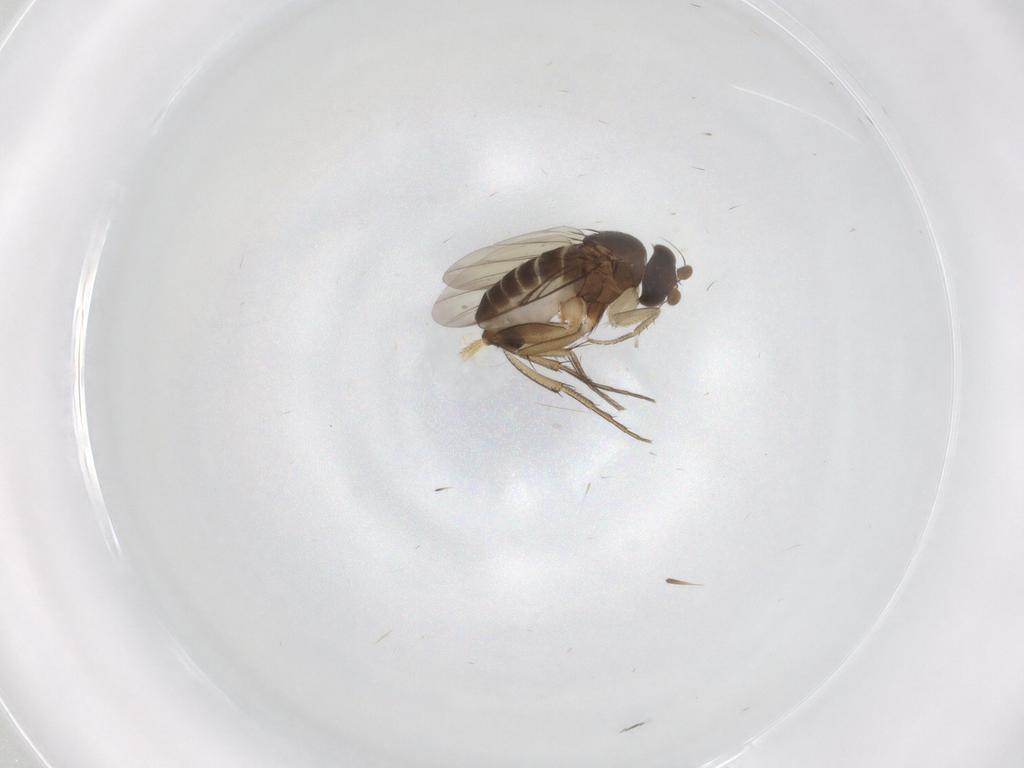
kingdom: Animalia
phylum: Arthropoda
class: Insecta
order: Diptera
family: Phoridae
